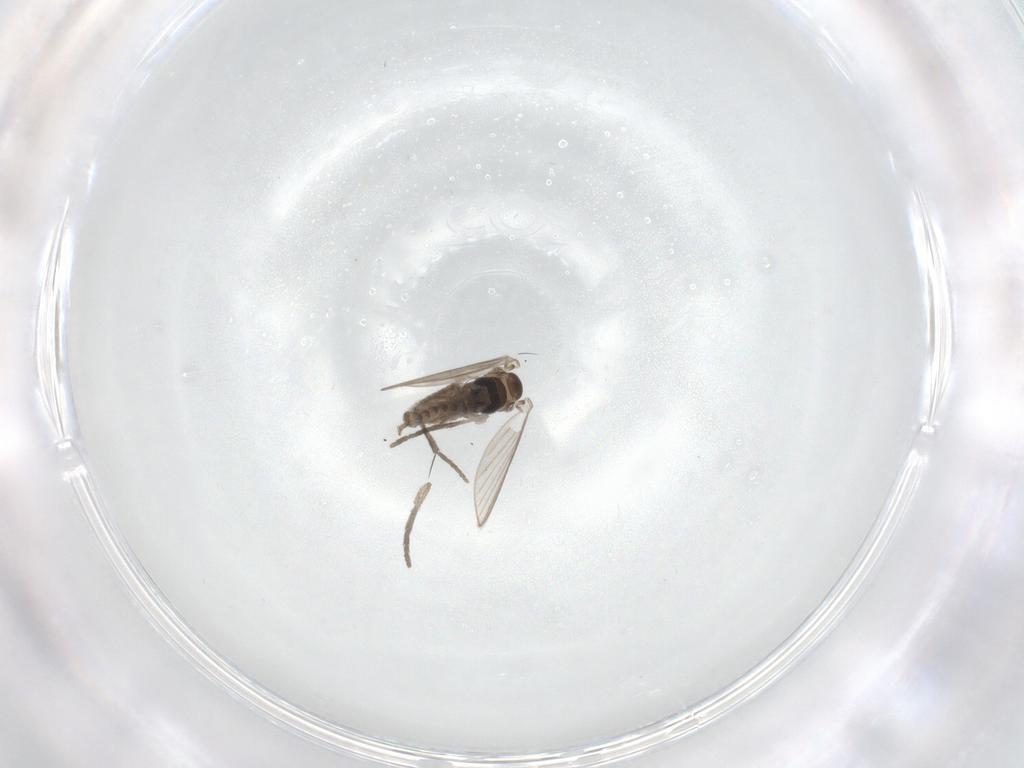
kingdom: Animalia
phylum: Arthropoda
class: Insecta
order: Diptera
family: Psychodidae
